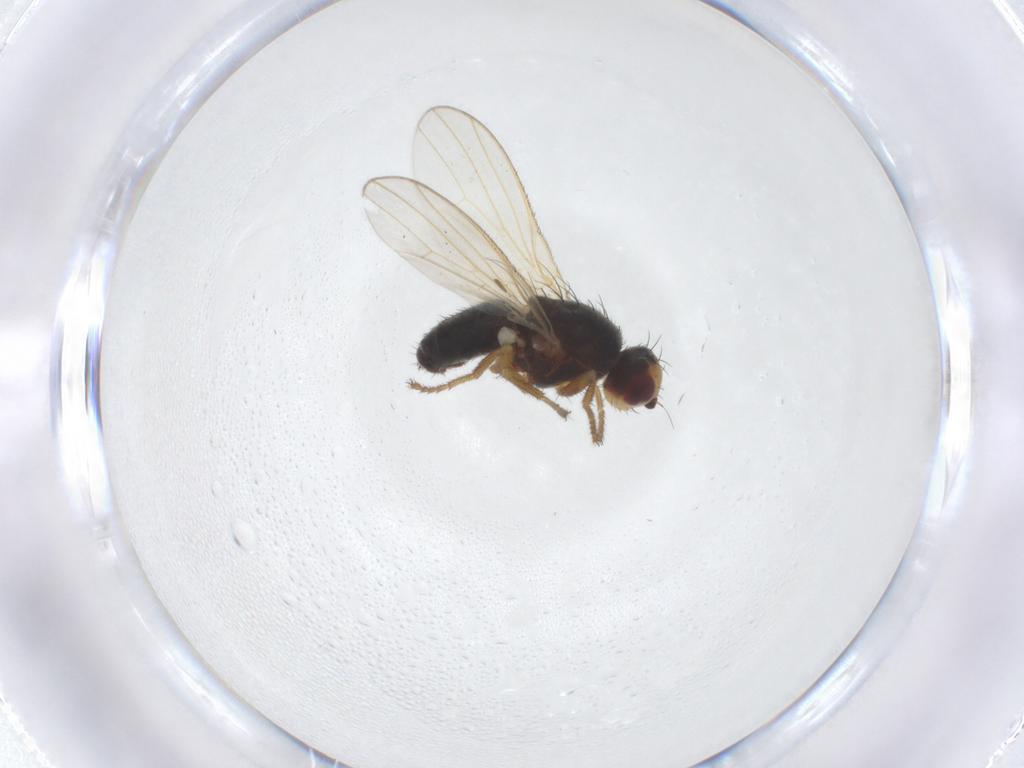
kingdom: Animalia
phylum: Arthropoda
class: Insecta
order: Diptera
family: Heleomyzidae
